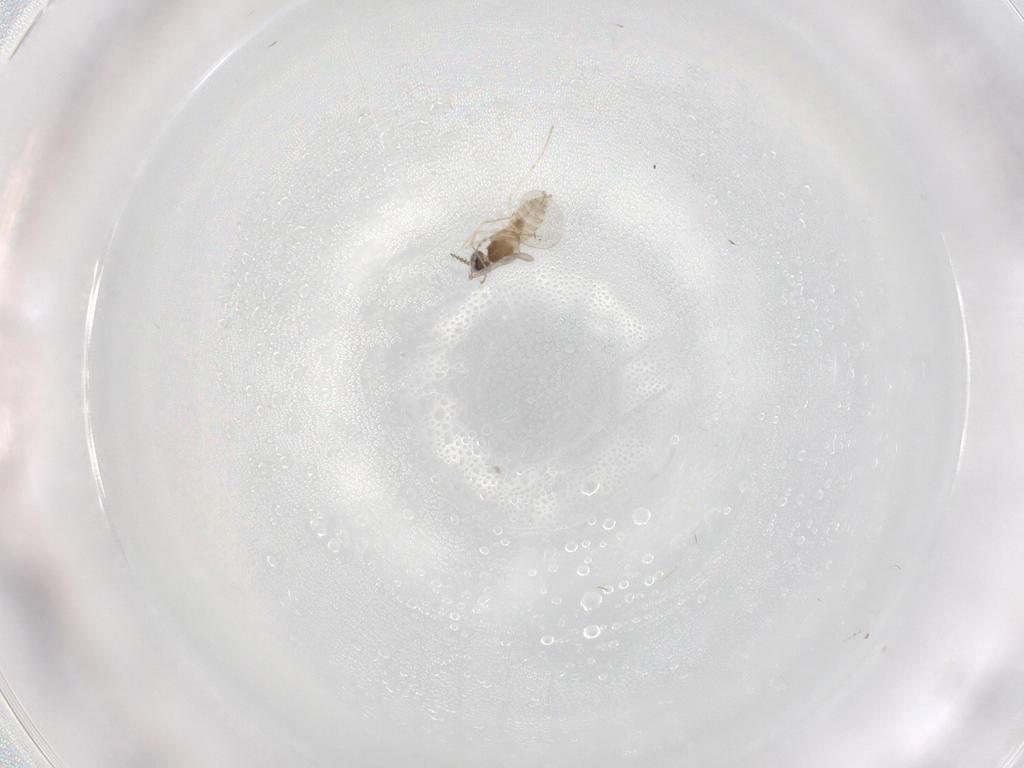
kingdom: Animalia
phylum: Arthropoda
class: Insecta
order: Diptera
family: Cecidomyiidae
